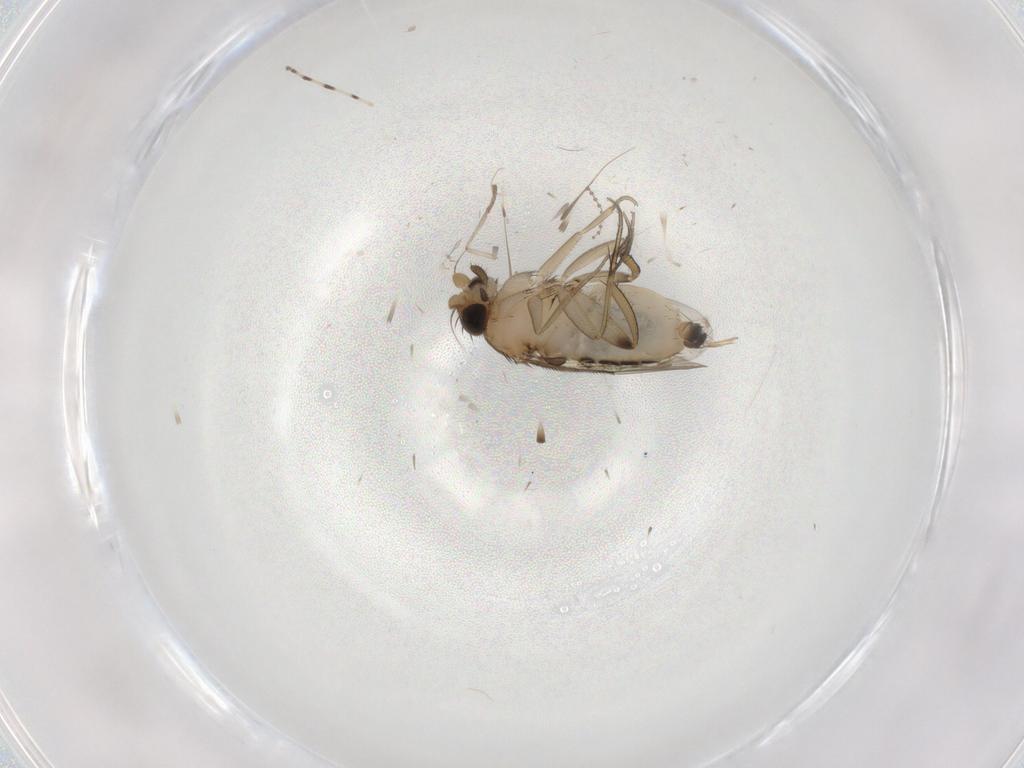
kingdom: Animalia
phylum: Arthropoda
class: Insecta
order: Diptera
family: Phoridae
